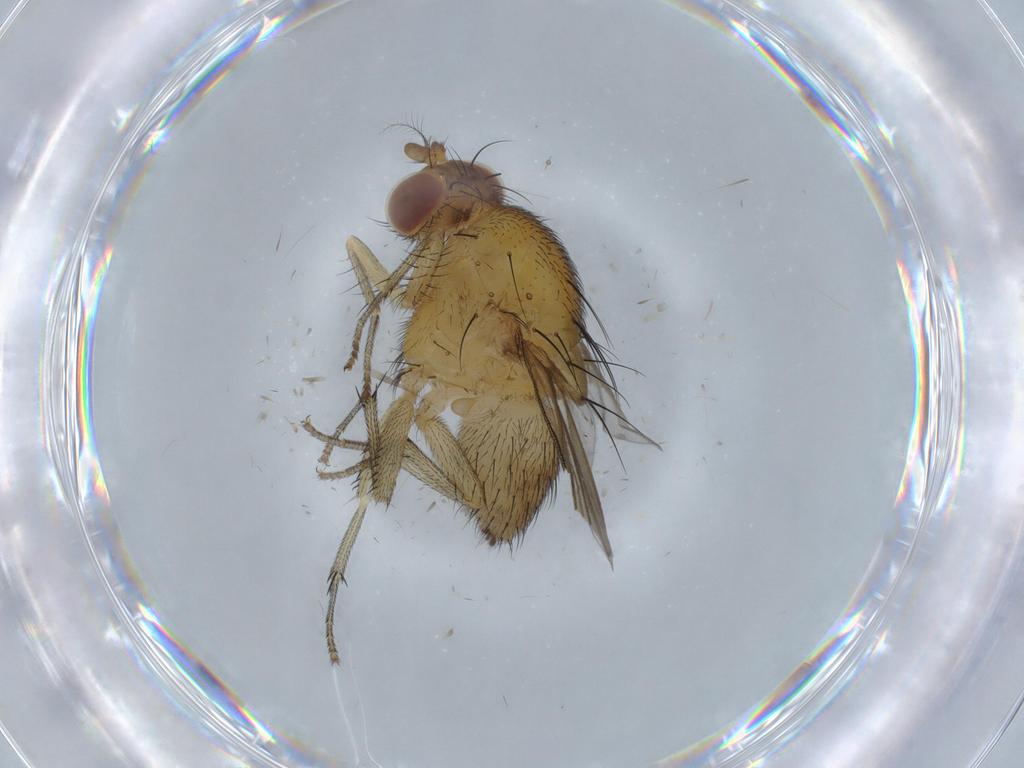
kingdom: Animalia
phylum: Arthropoda
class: Insecta
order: Diptera
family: Lauxaniidae
